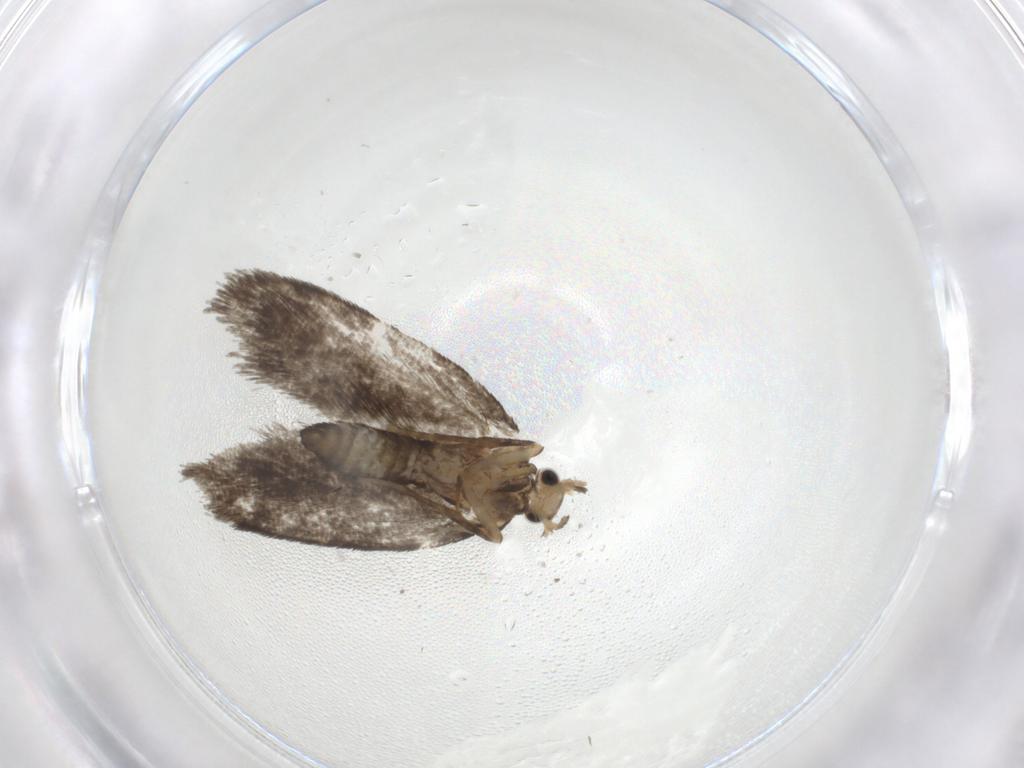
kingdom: Animalia
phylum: Arthropoda
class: Insecta
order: Lepidoptera
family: Psychidae
